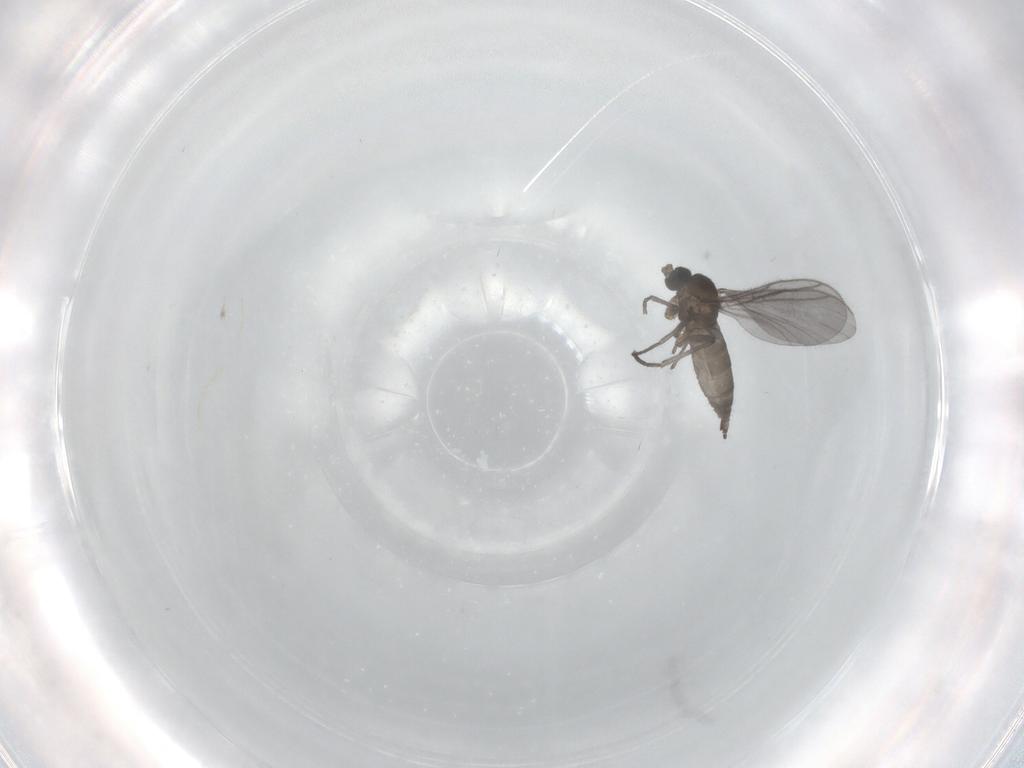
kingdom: Animalia
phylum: Arthropoda
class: Insecta
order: Diptera
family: Sciaridae
